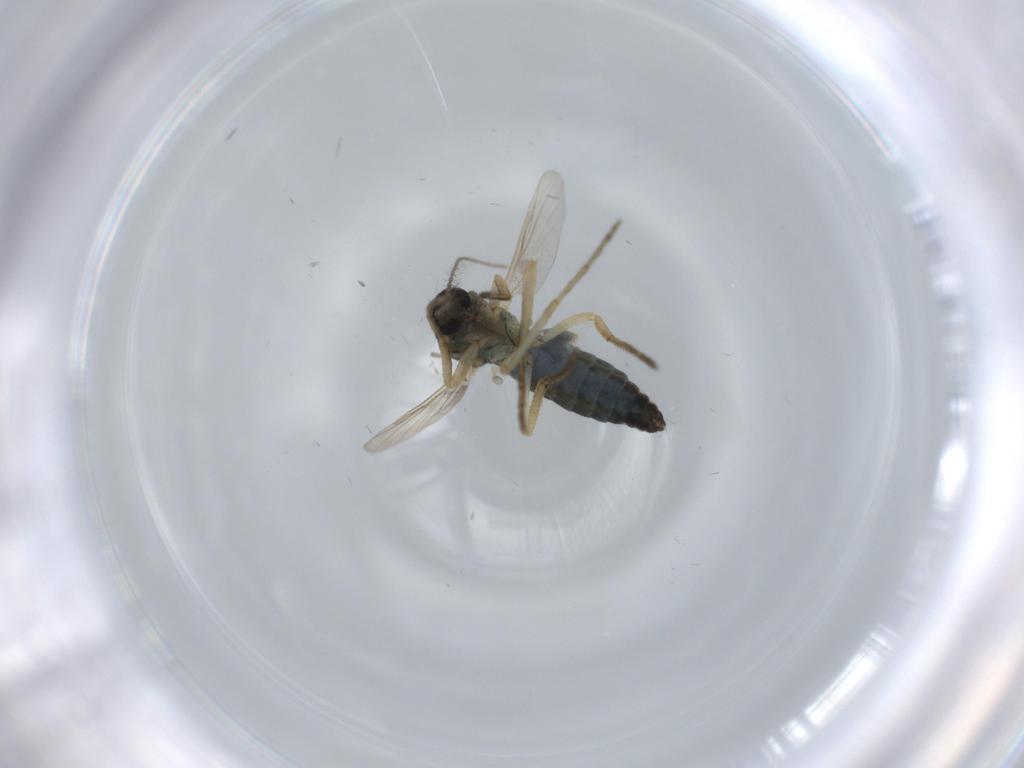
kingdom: Animalia
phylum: Arthropoda
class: Insecta
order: Diptera
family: Ceratopogonidae
